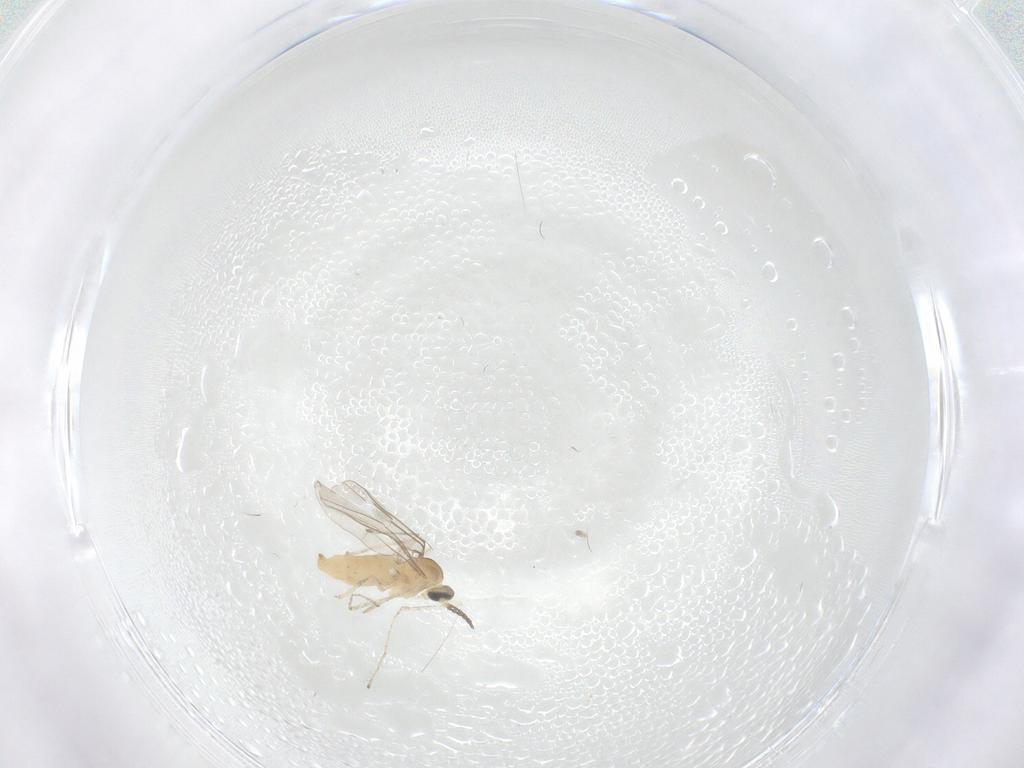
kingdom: Animalia
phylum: Arthropoda
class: Insecta
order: Diptera
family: Cecidomyiidae
